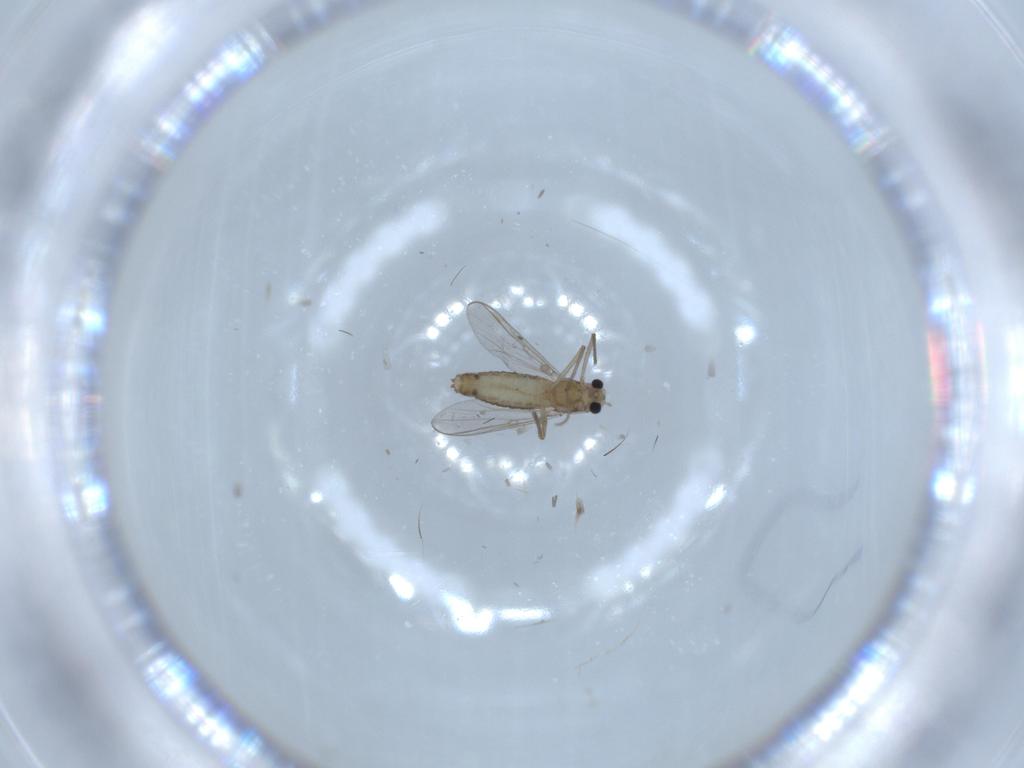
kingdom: Animalia
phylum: Arthropoda
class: Insecta
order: Diptera
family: Chironomidae
